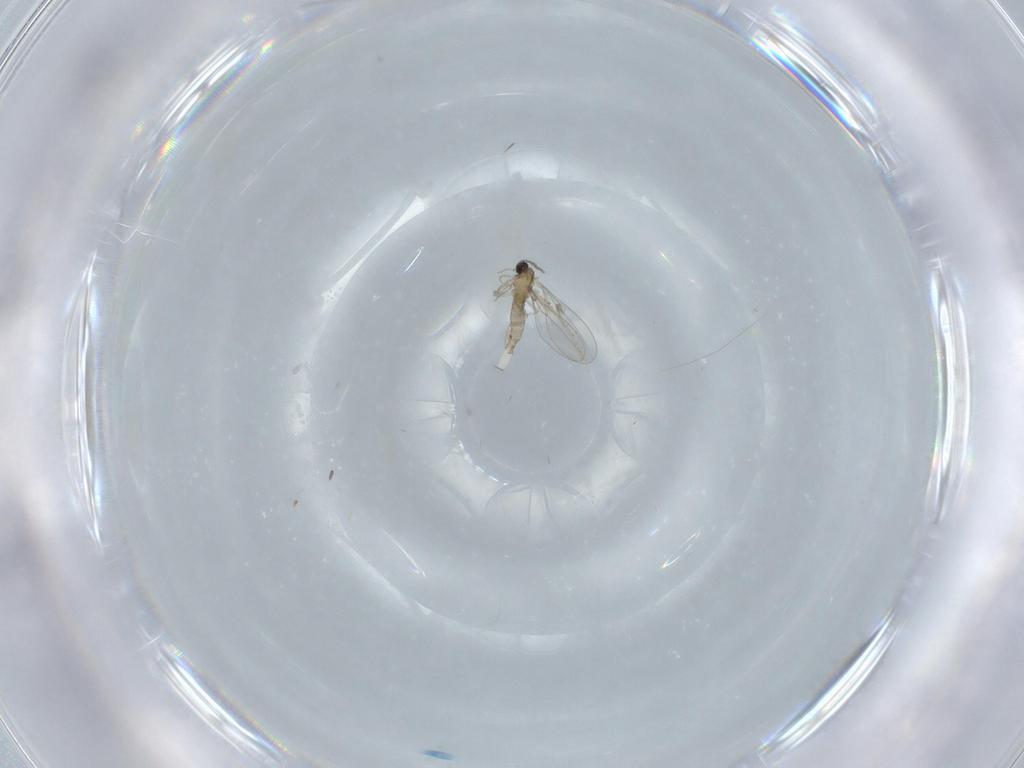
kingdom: Animalia
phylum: Arthropoda
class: Insecta
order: Diptera
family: Cecidomyiidae
